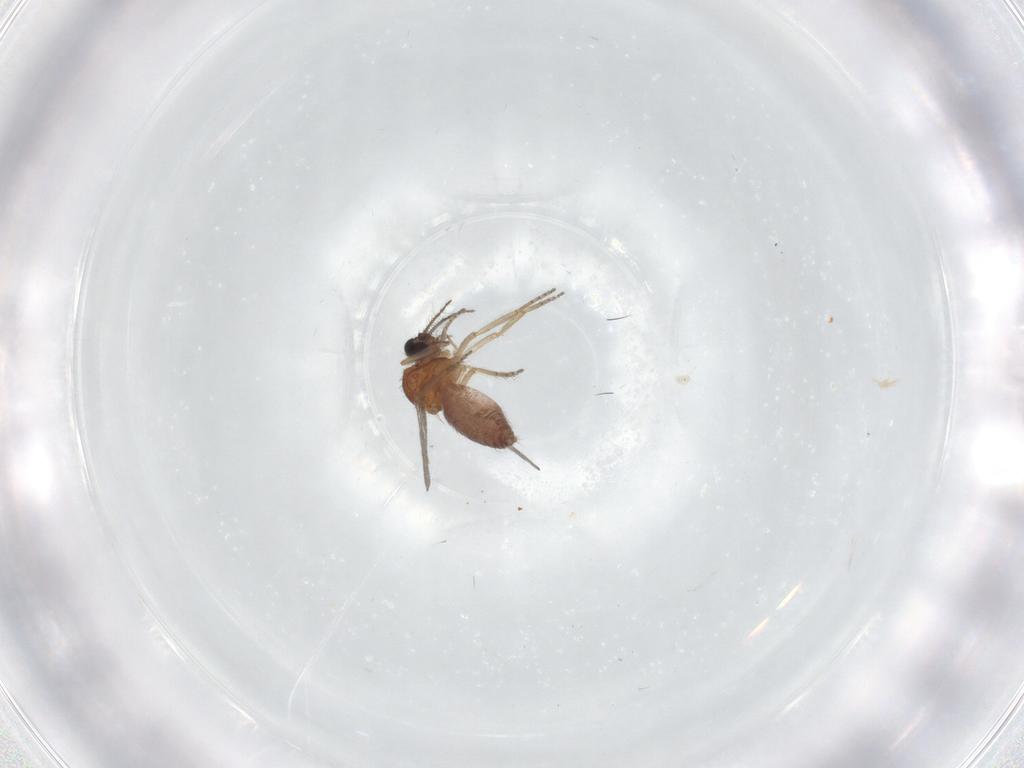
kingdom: Animalia
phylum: Arthropoda
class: Insecta
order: Diptera
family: Ceratopogonidae
